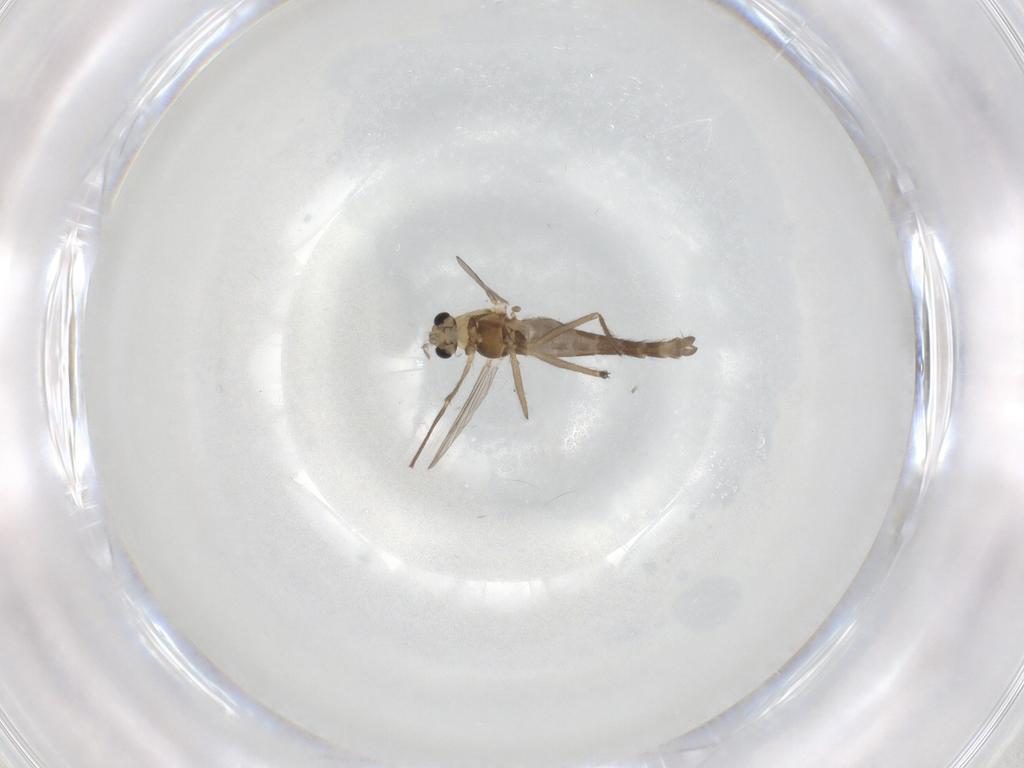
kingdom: Animalia
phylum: Arthropoda
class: Insecta
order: Diptera
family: Chironomidae
